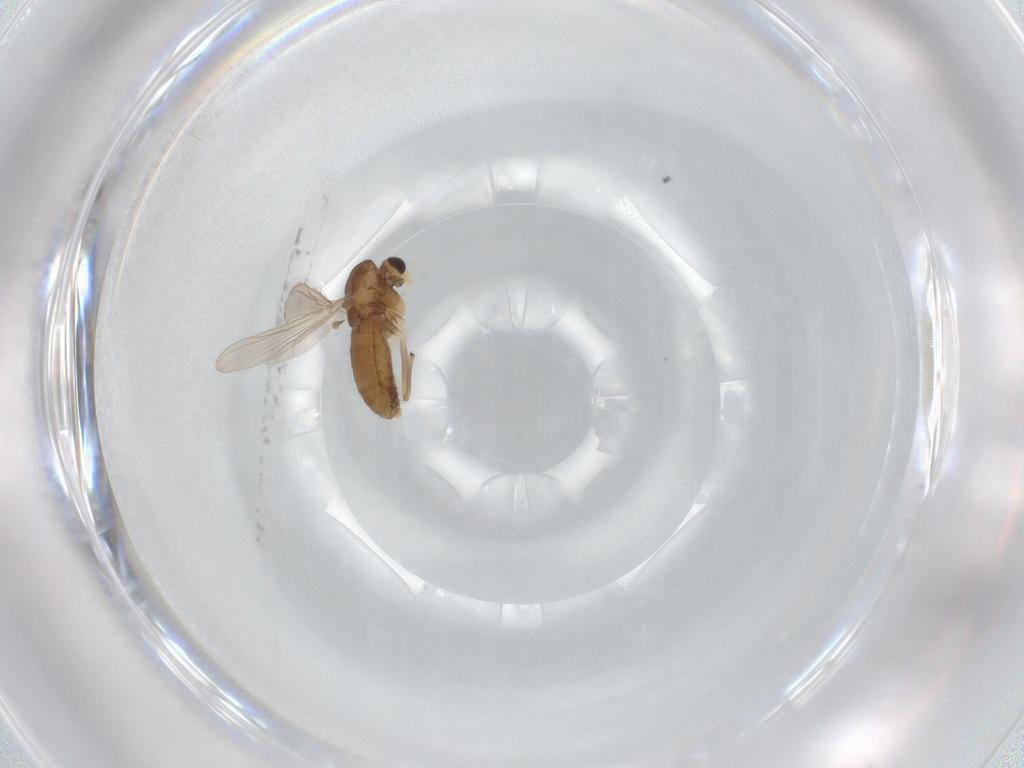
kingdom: Animalia
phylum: Arthropoda
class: Insecta
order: Diptera
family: Chironomidae
